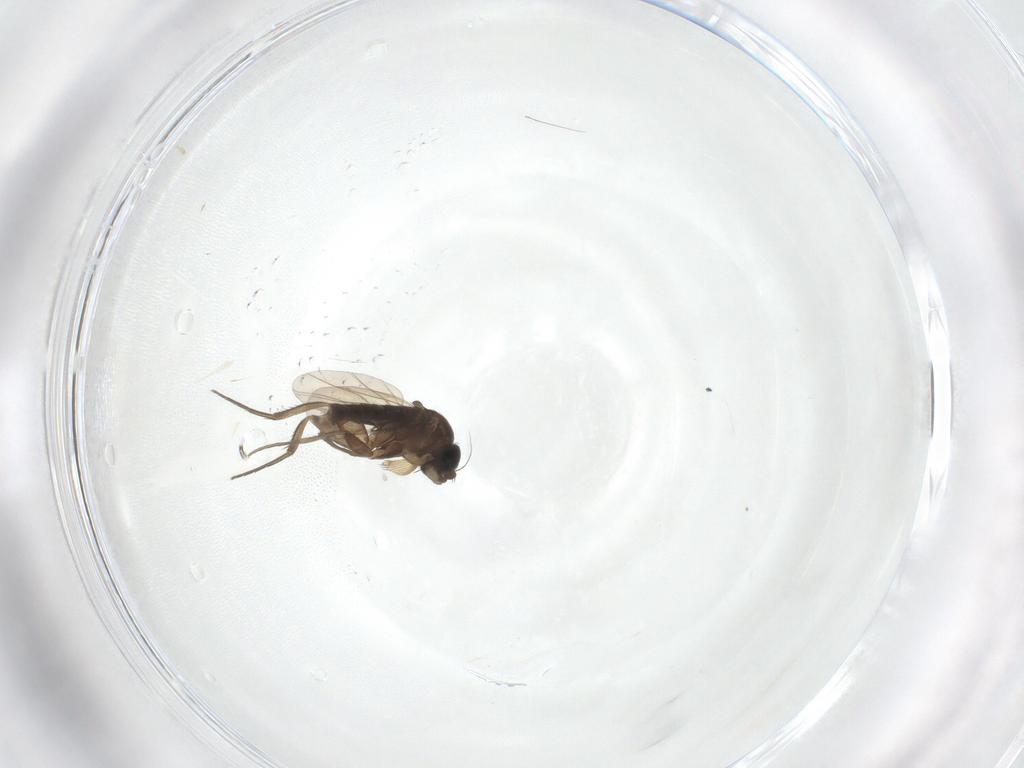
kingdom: Animalia
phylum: Arthropoda
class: Insecta
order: Diptera
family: Phoridae
